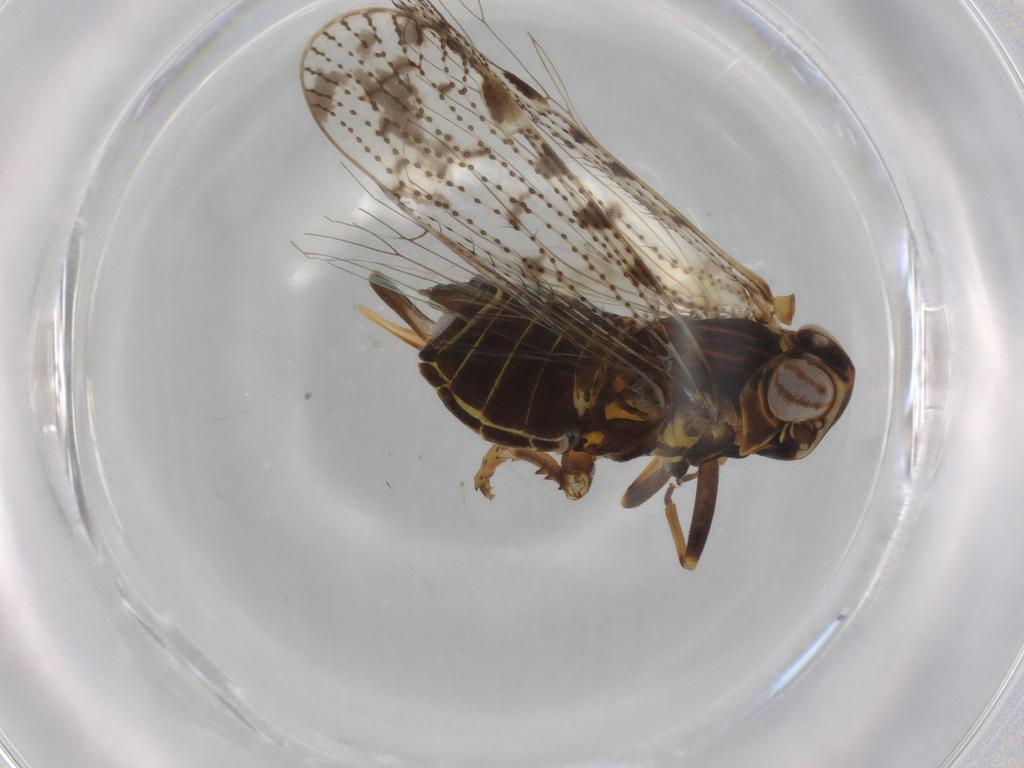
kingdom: Animalia
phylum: Arthropoda
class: Insecta
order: Hemiptera
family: Cixiidae
